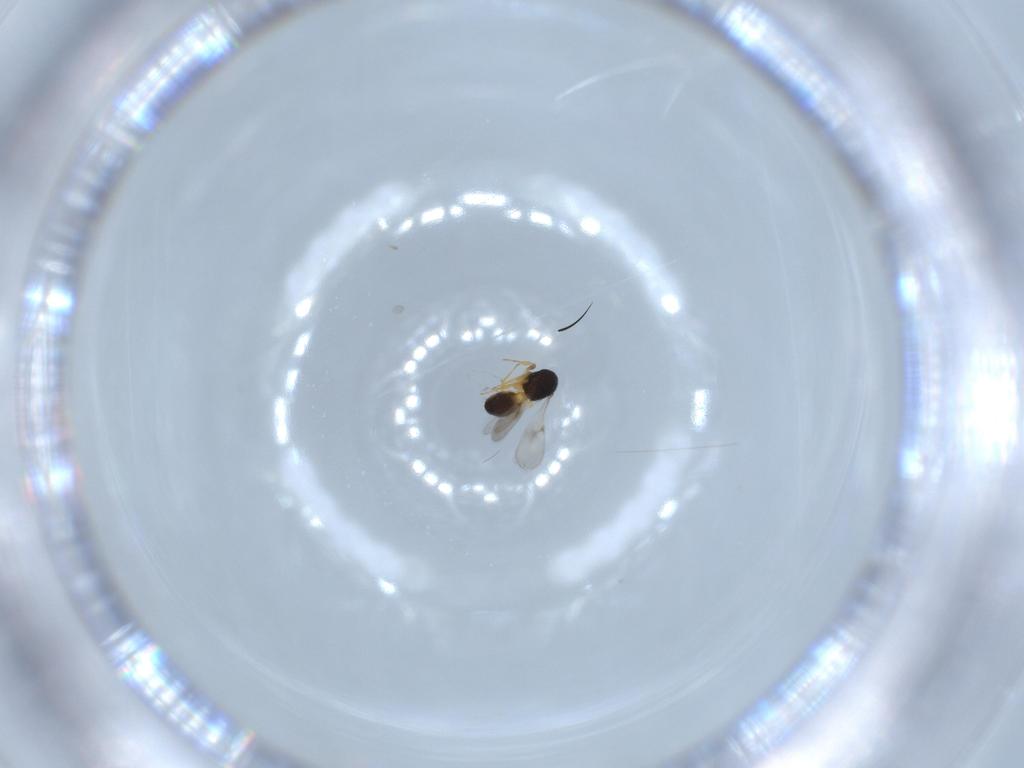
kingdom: Animalia
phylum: Arthropoda
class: Insecta
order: Hymenoptera
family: Scelionidae
